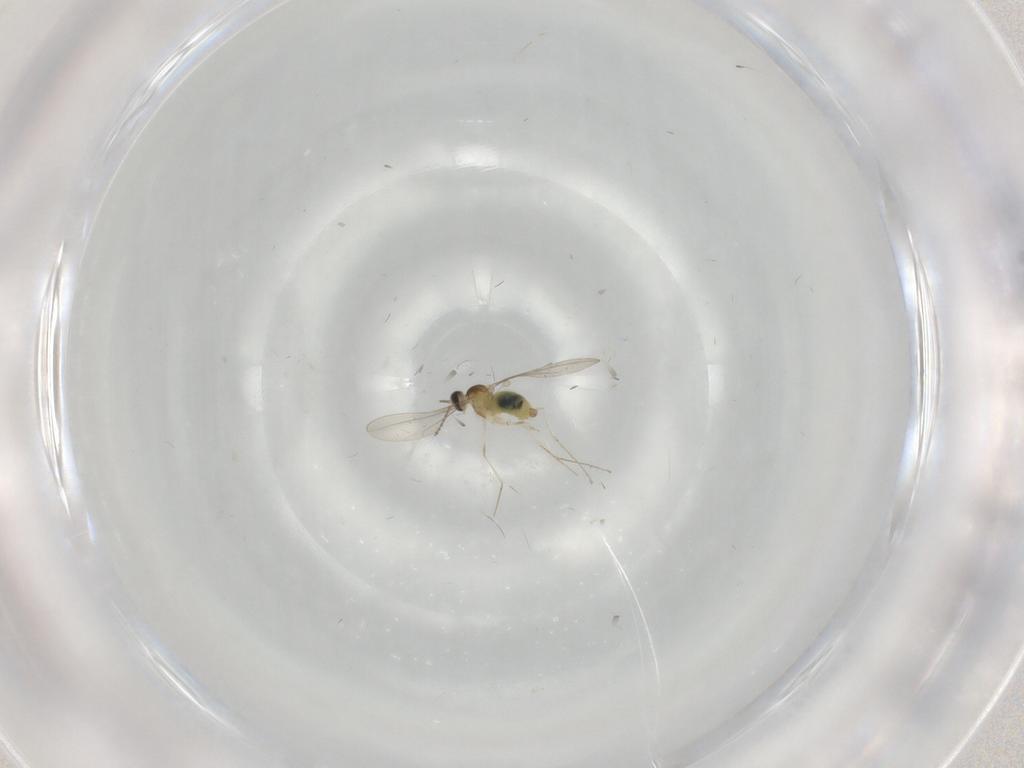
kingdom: Animalia
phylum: Arthropoda
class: Insecta
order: Diptera
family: Cecidomyiidae
